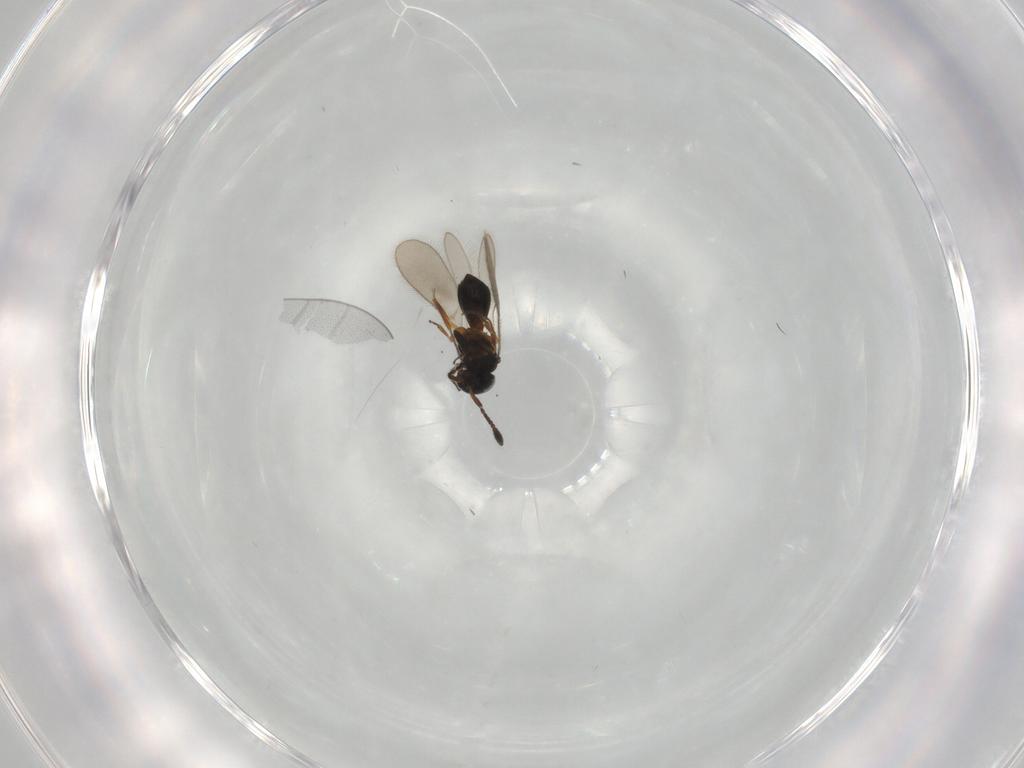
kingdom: Animalia
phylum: Arthropoda
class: Insecta
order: Hymenoptera
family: Scelionidae
